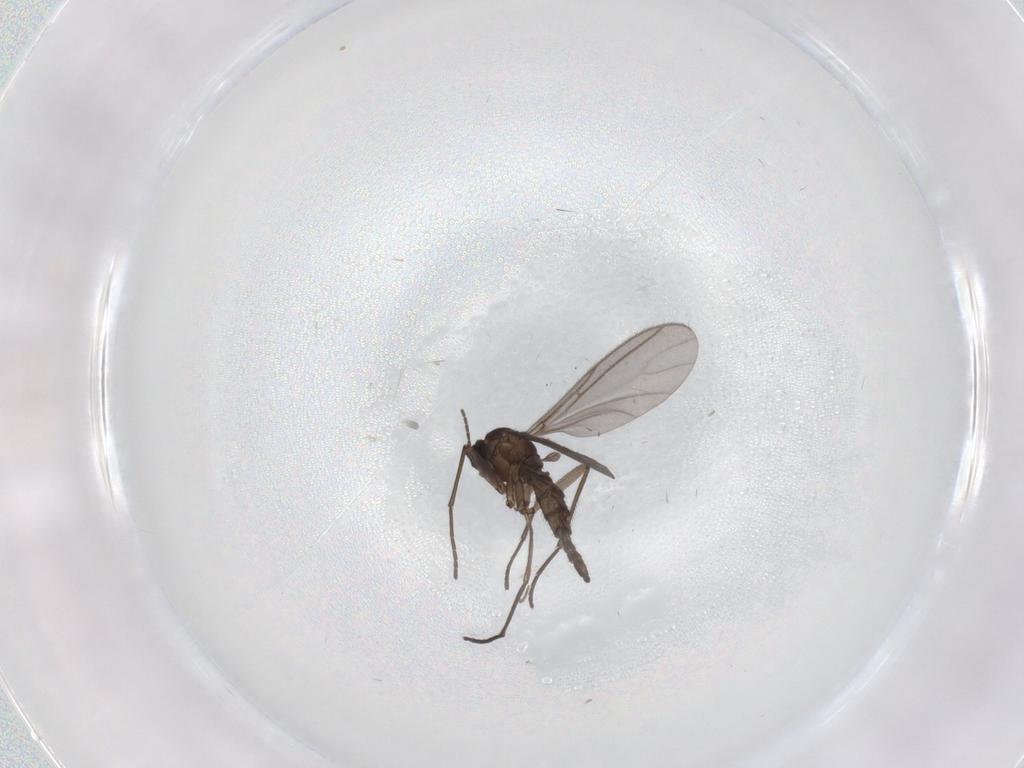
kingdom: Animalia
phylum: Arthropoda
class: Insecta
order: Diptera
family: Sciaridae
